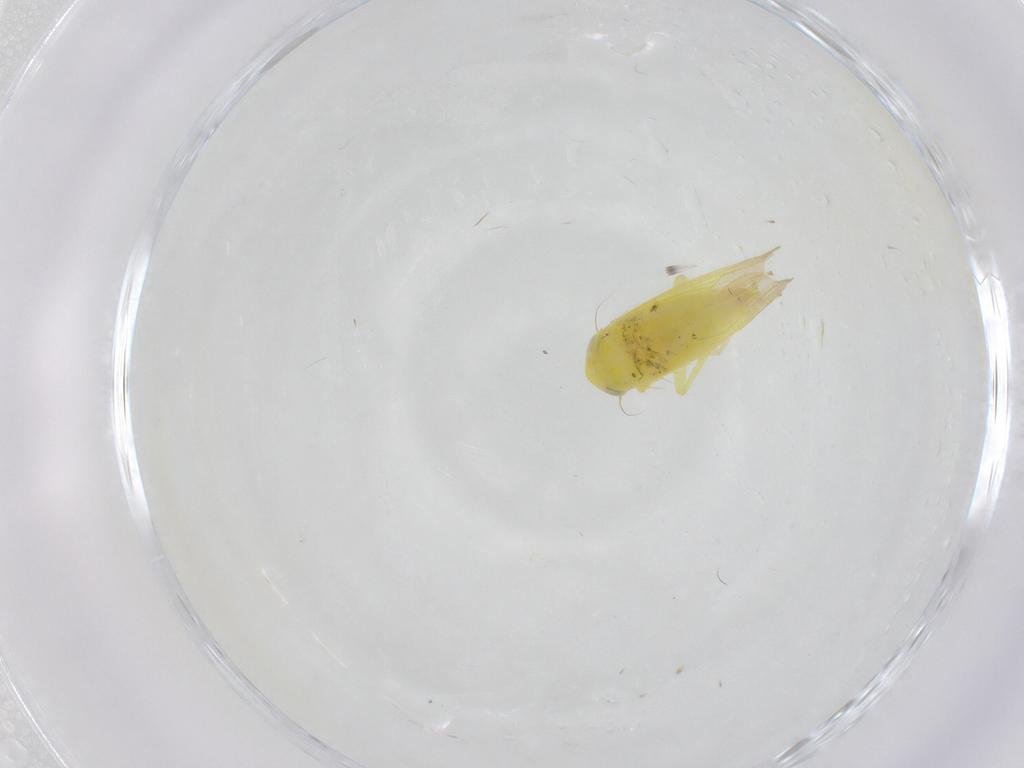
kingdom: Animalia
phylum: Arthropoda
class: Insecta
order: Hemiptera
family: Cicadellidae
